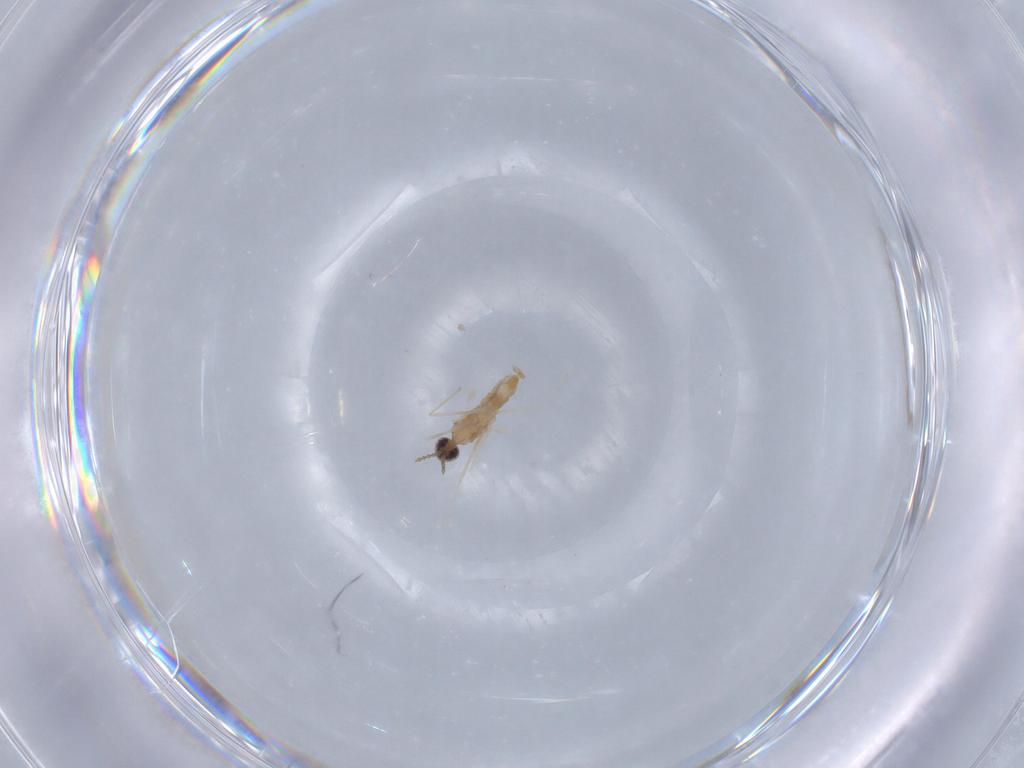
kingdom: Animalia
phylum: Arthropoda
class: Insecta
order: Diptera
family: Cecidomyiidae
